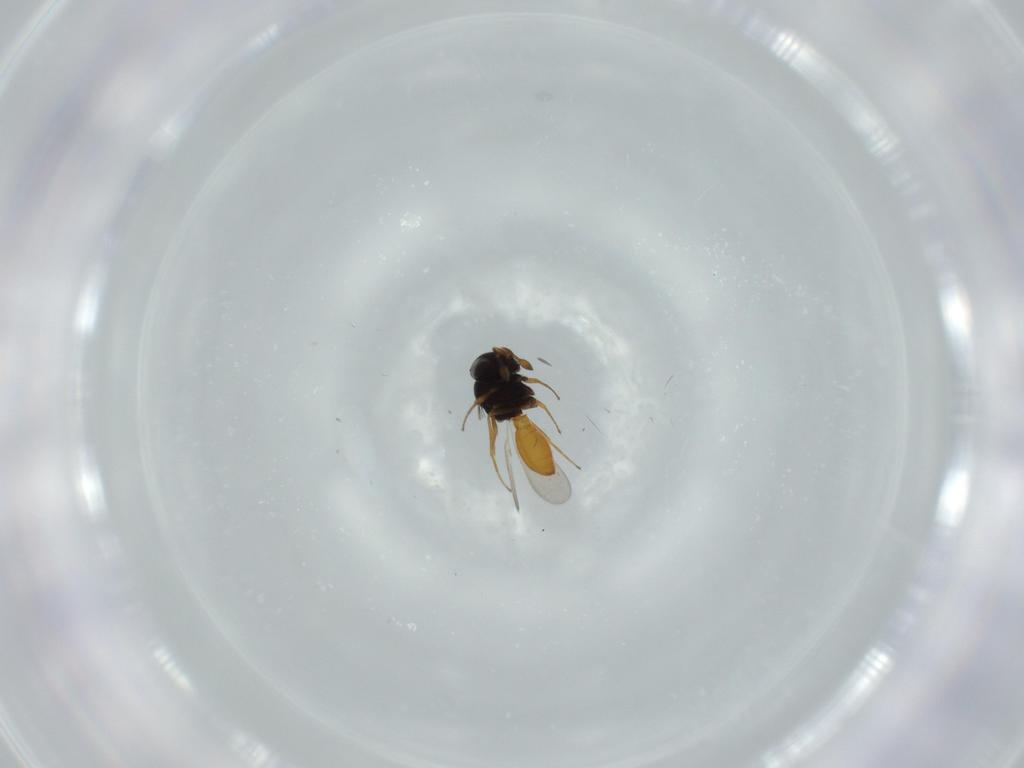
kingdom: Animalia
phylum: Arthropoda
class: Insecta
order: Hymenoptera
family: Scelionidae
